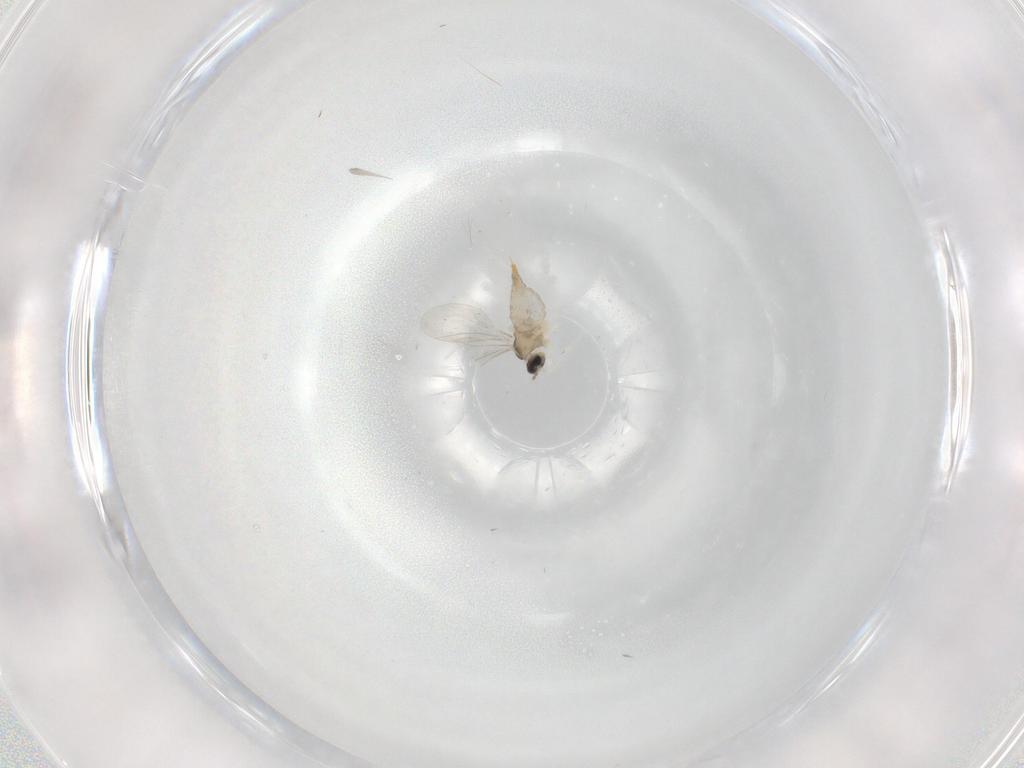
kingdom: Animalia
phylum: Arthropoda
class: Insecta
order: Diptera
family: Cecidomyiidae
